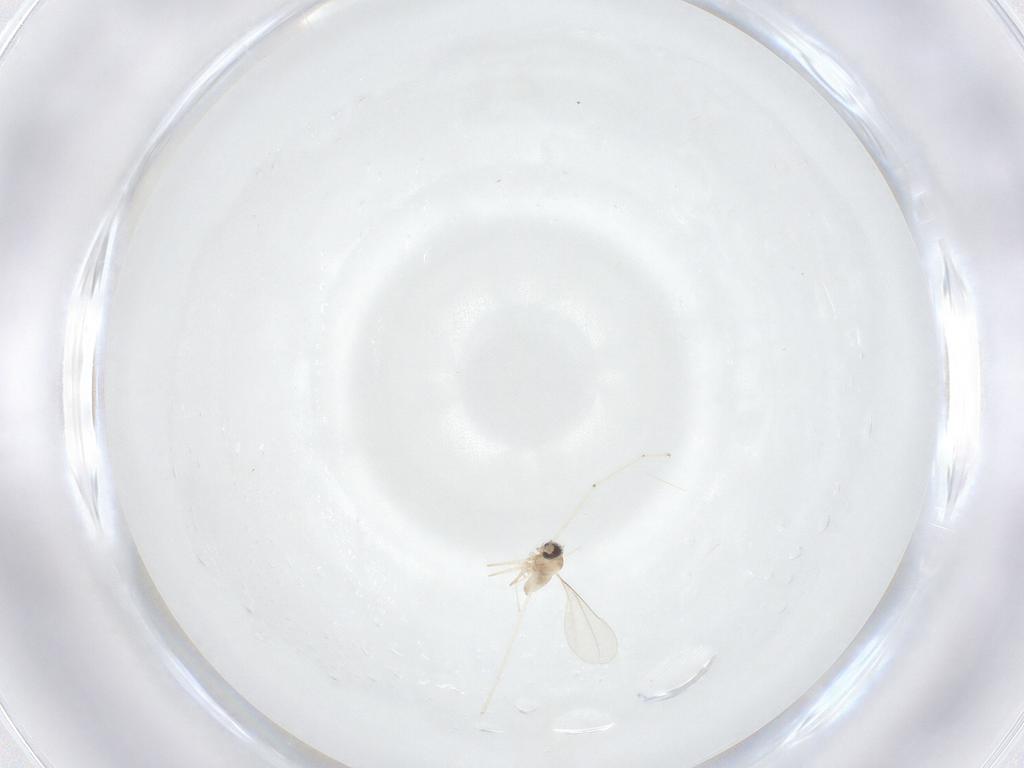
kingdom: Animalia
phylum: Arthropoda
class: Insecta
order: Diptera
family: Cecidomyiidae
